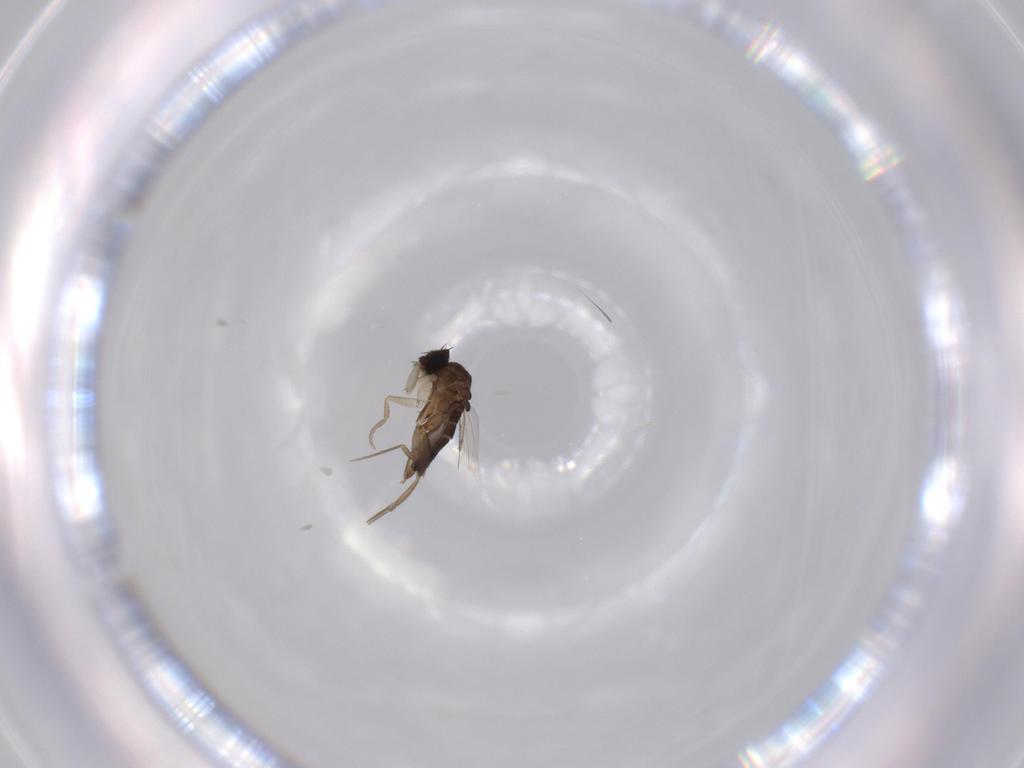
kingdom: Animalia
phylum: Arthropoda
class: Insecta
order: Diptera
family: Phoridae
